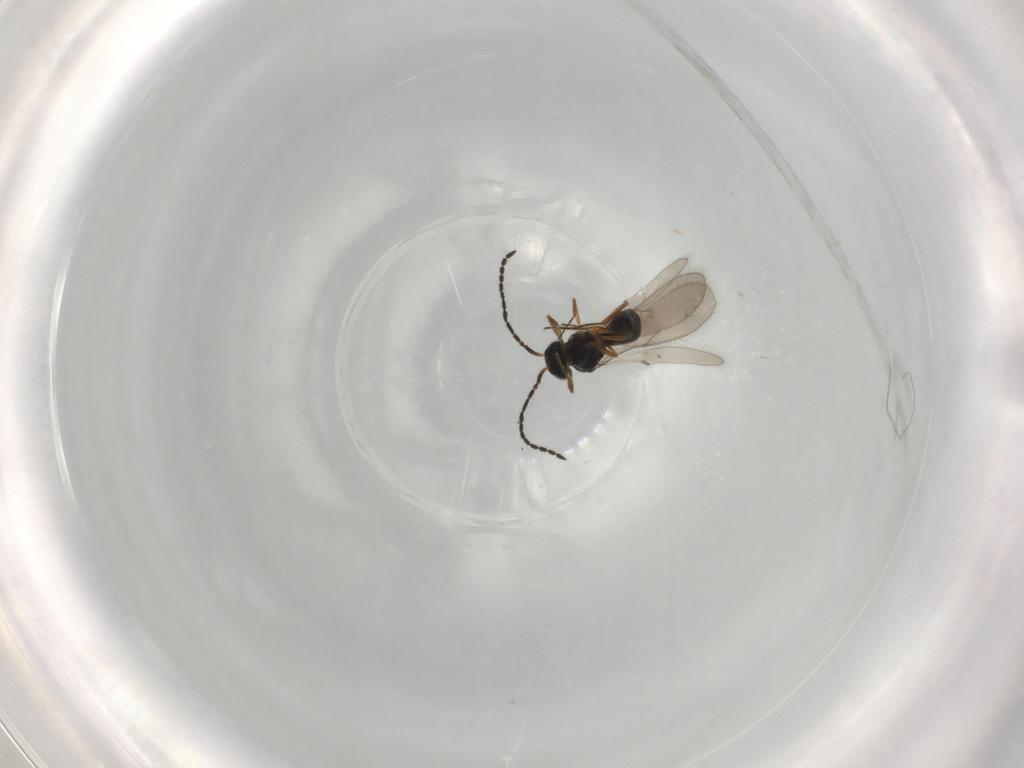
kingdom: Animalia
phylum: Arthropoda
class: Insecta
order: Hymenoptera
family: Scelionidae
